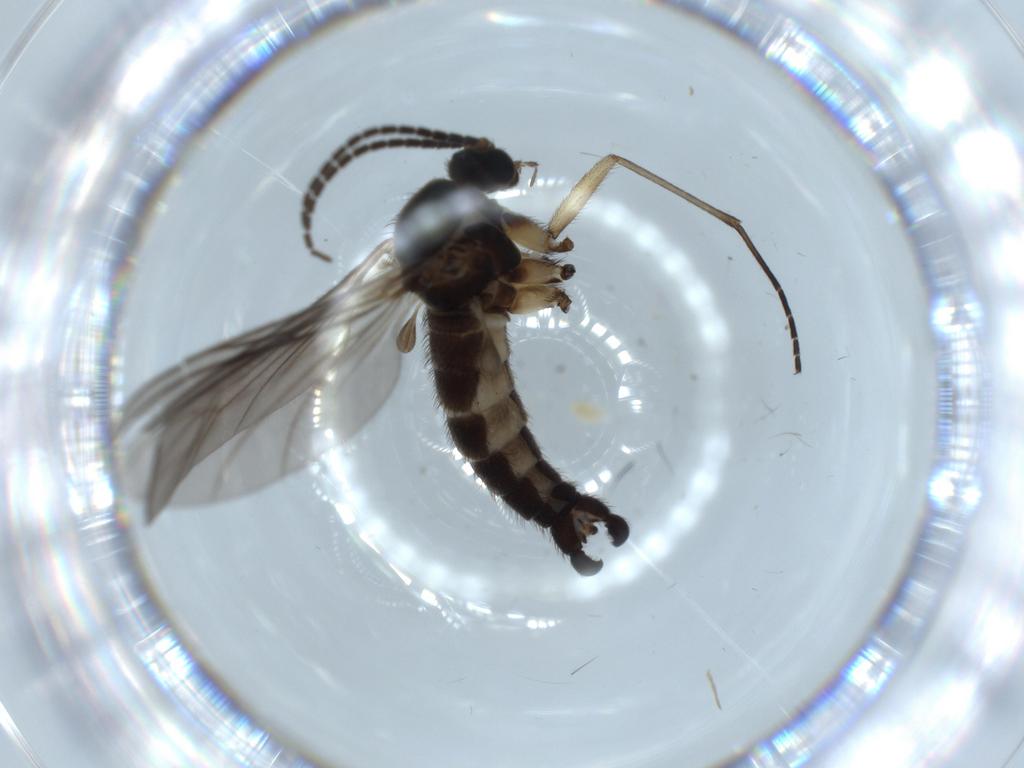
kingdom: Animalia
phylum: Arthropoda
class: Insecta
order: Diptera
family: Sciaridae
